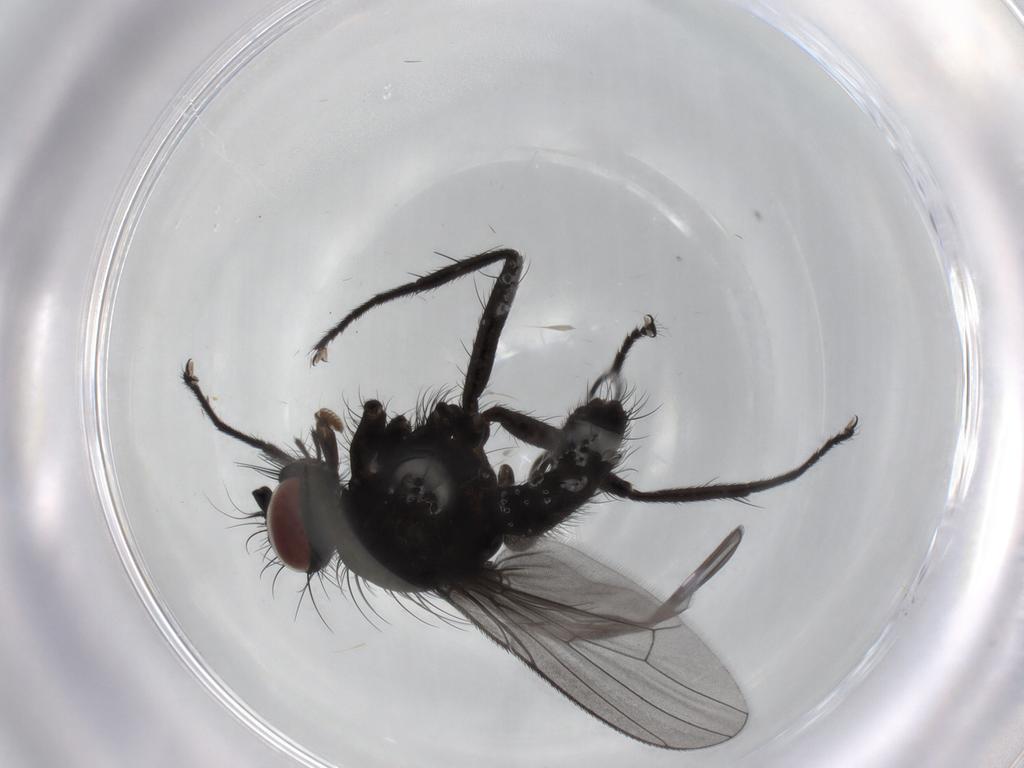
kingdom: Animalia
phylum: Arthropoda
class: Insecta
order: Diptera
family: Muscidae
